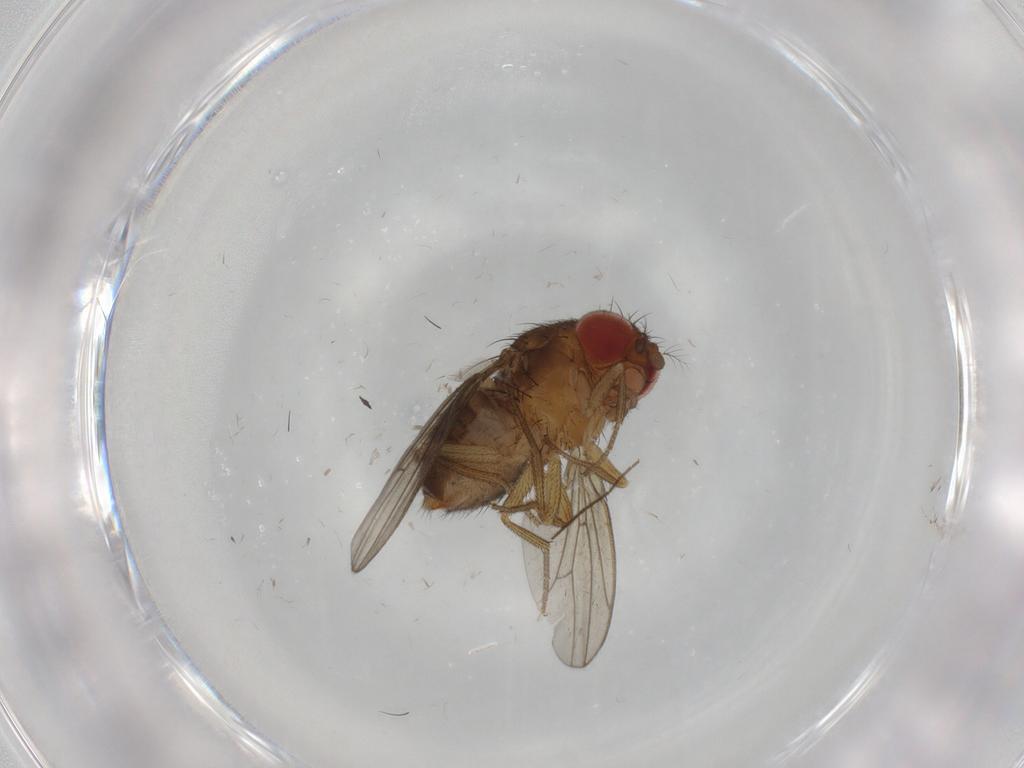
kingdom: Animalia
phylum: Arthropoda
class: Insecta
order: Diptera
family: Drosophilidae
